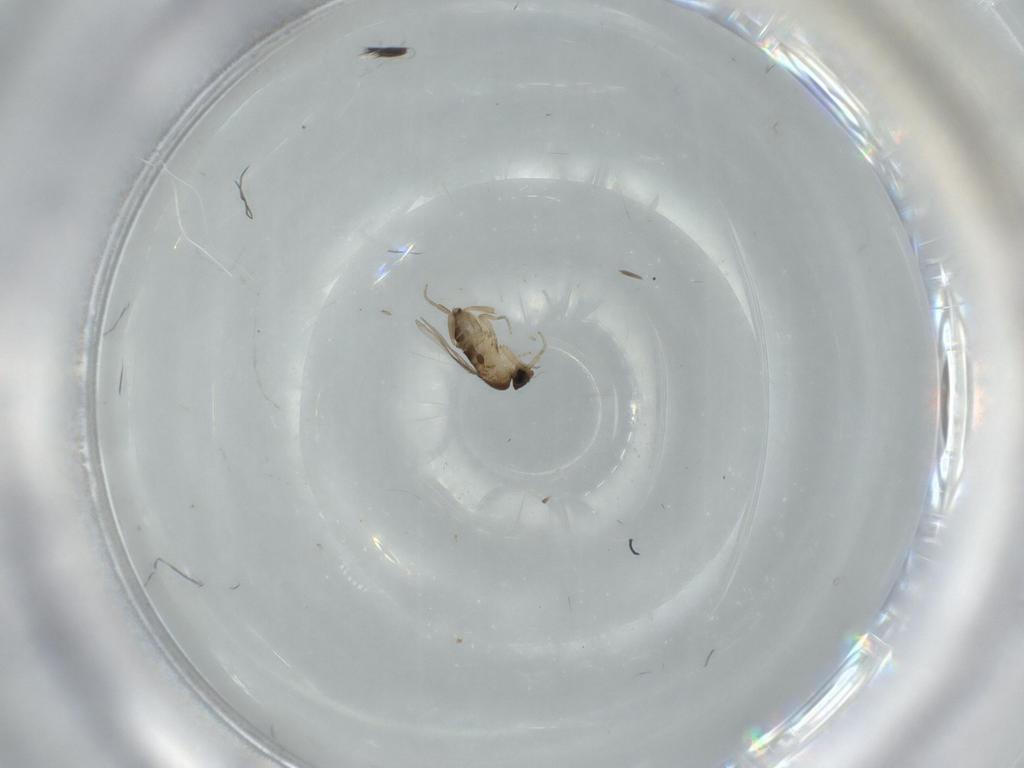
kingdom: Animalia
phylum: Arthropoda
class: Insecta
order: Diptera
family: Phoridae
